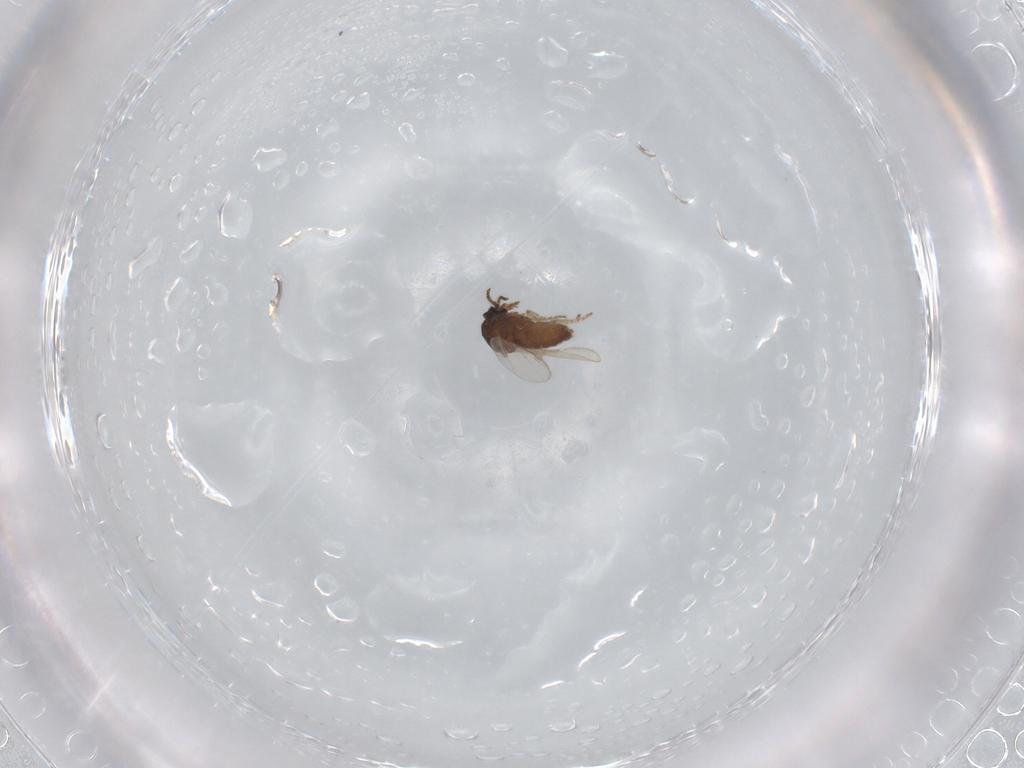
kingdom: Animalia
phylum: Arthropoda
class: Insecta
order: Diptera
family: Ceratopogonidae
